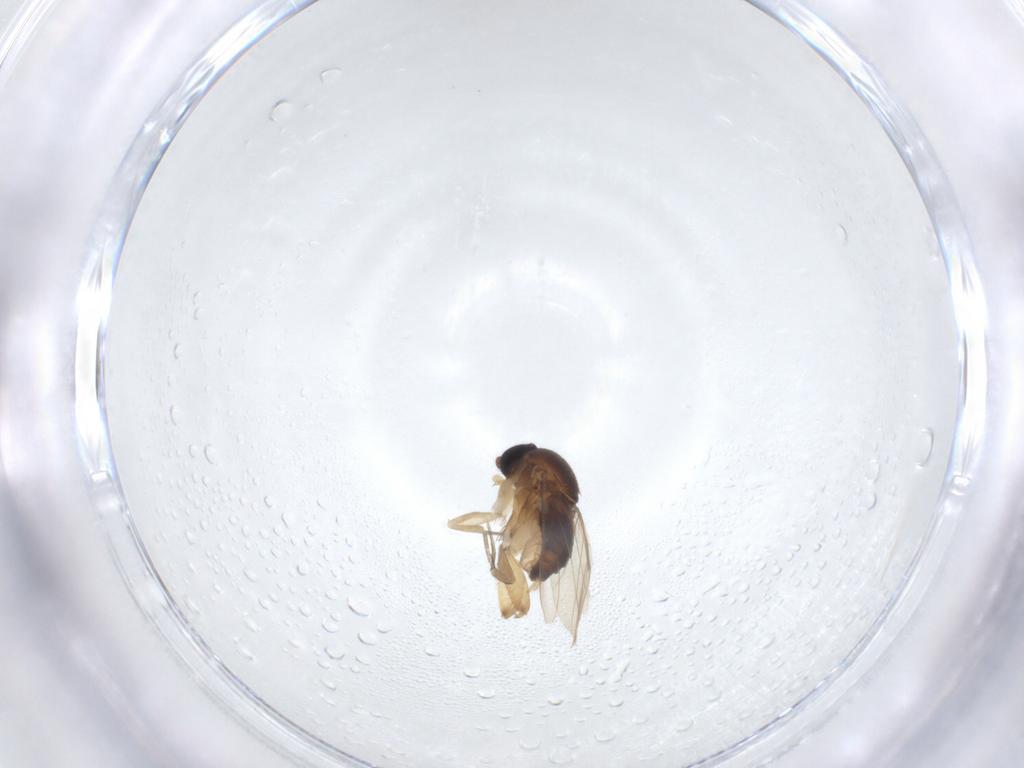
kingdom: Animalia
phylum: Arthropoda
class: Insecta
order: Diptera
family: Phoridae
